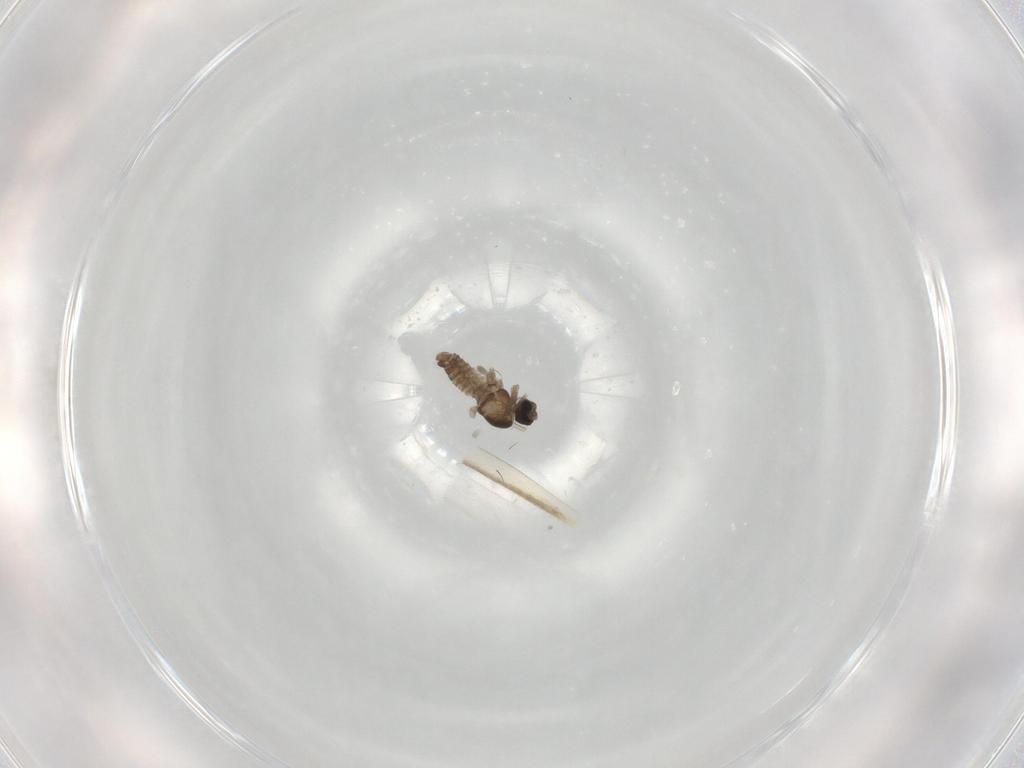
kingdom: Animalia
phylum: Arthropoda
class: Insecta
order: Diptera
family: Cecidomyiidae
